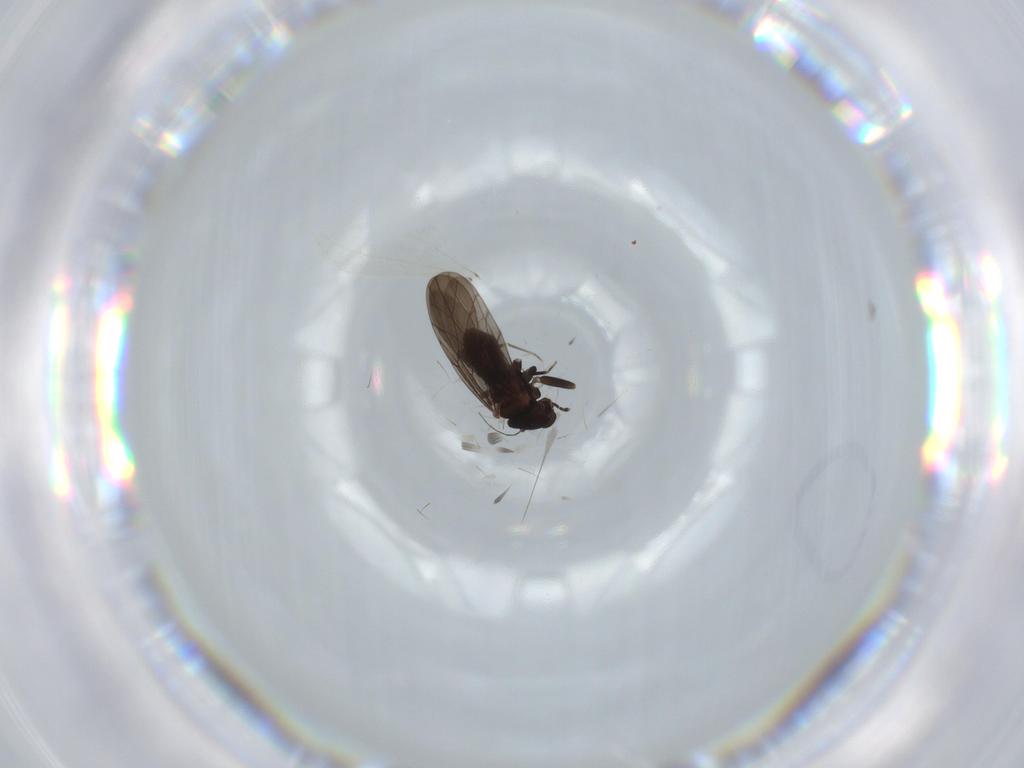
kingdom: Animalia
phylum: Arthropoda
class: Insecta
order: Psocodea
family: Lepidopsocidae
